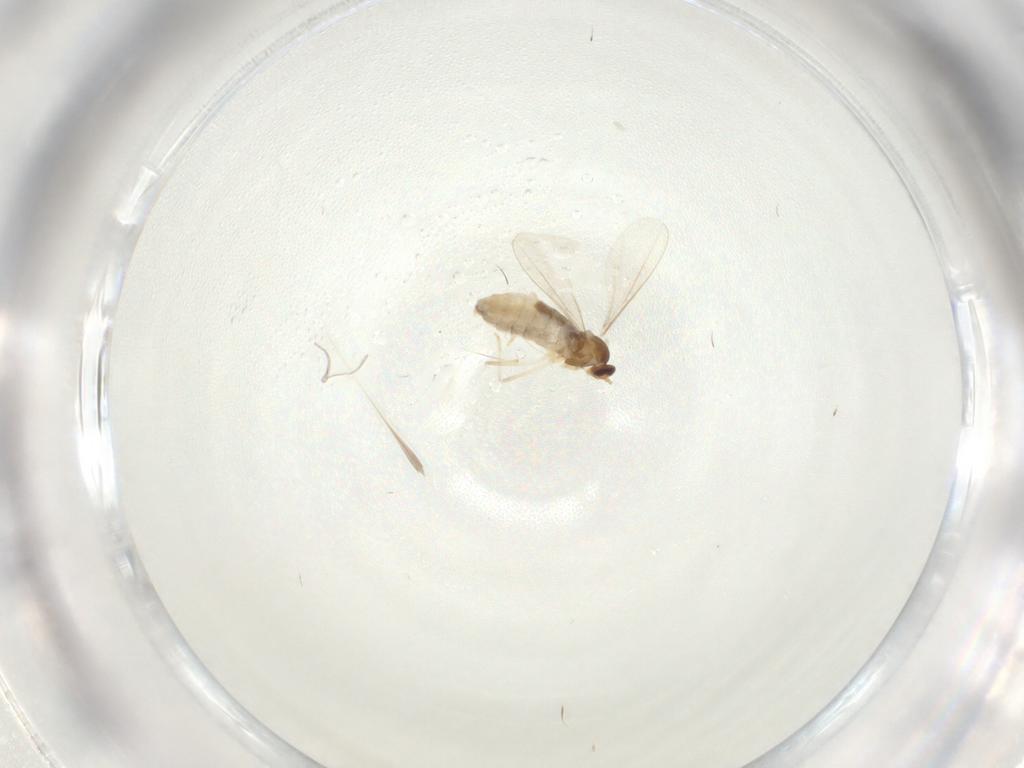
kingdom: Animalia
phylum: Arthropoda
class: Insecta
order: Diptera
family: Cecidomyiidae
